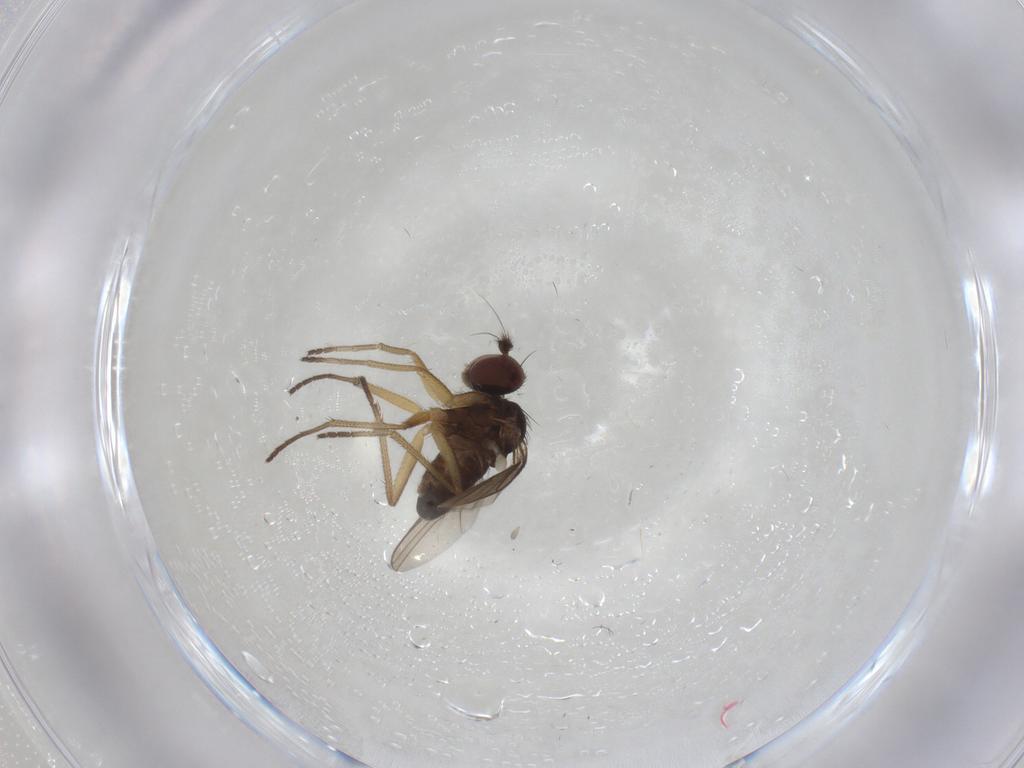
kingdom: Animalia
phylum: Arthropoda
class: Insecta
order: Diptera
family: Dolichopodidae
